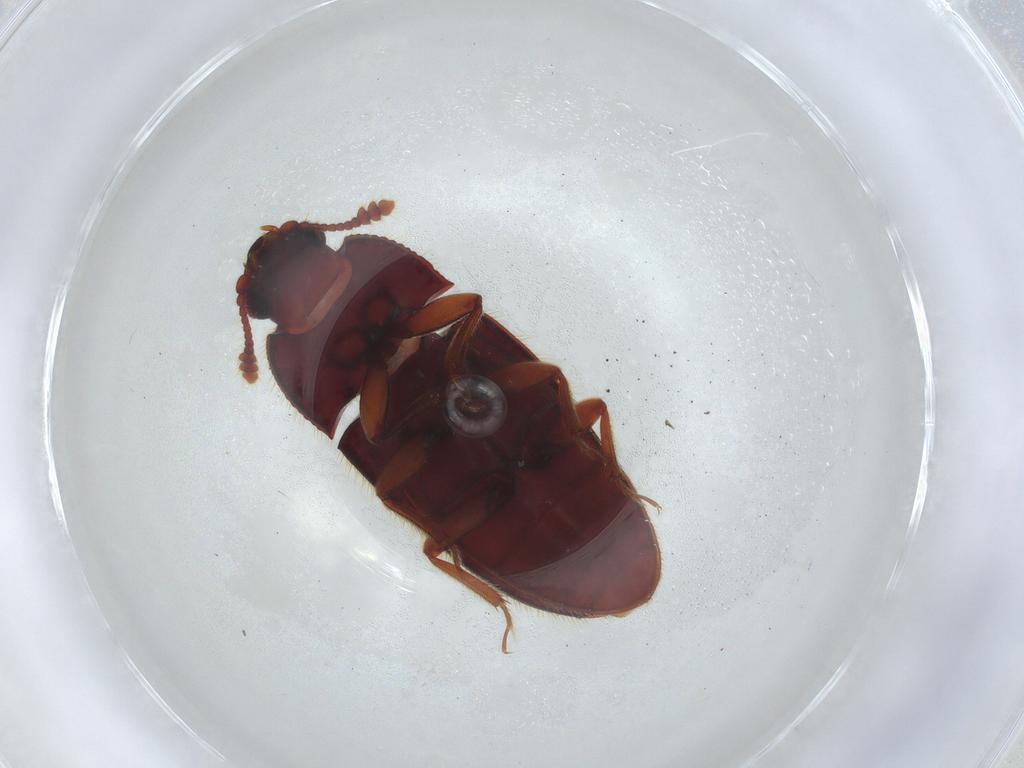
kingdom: Animalia
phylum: Arthropoda
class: Insecta
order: Coleoptera
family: Biphyllidae
